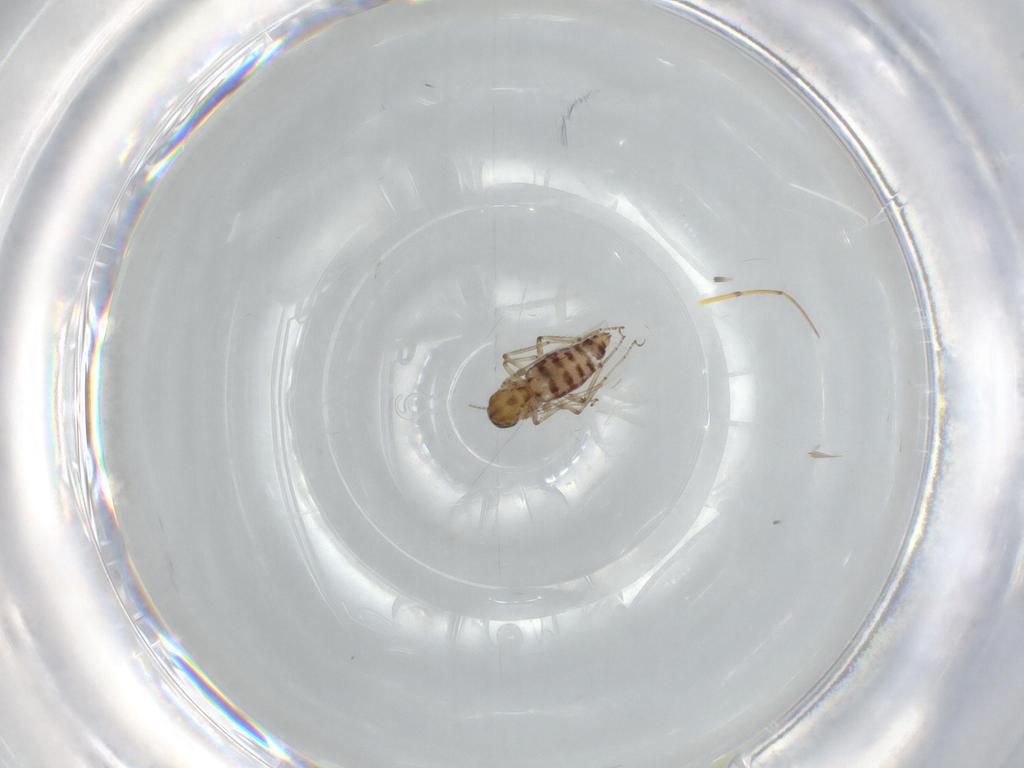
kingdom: Animalia
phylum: Arthropoda
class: Insecta
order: Diptera
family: Ceratopogonidae
